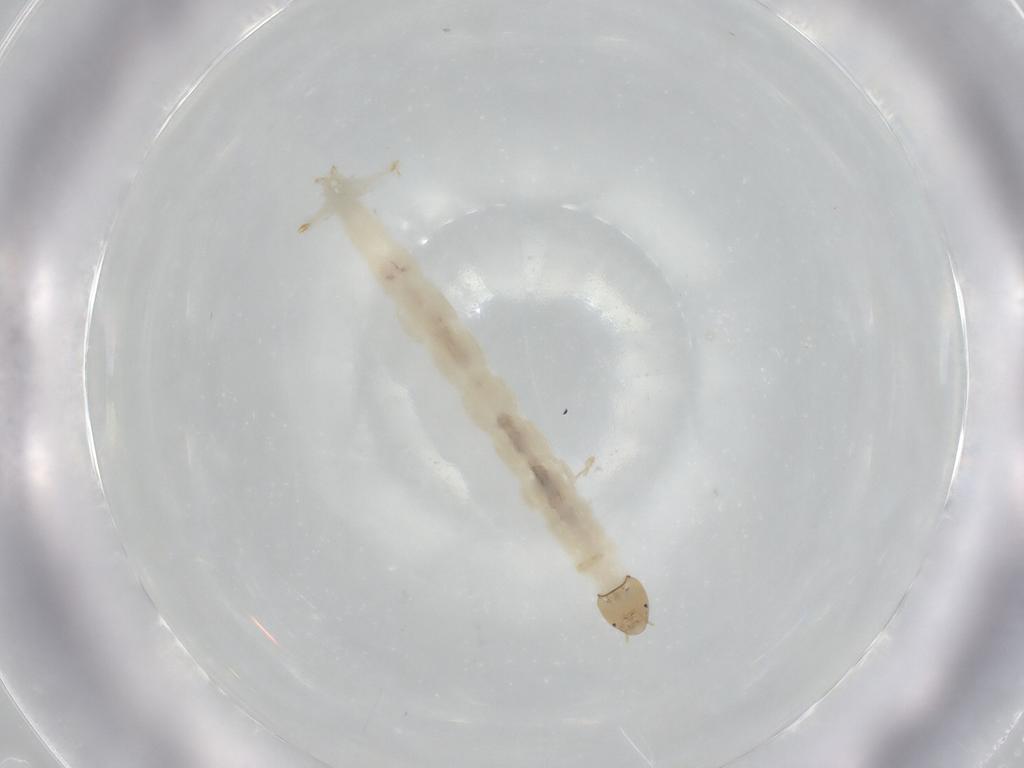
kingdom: Animalia
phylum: Arthropoda
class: Insecta
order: Diptera
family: Chironomidae
